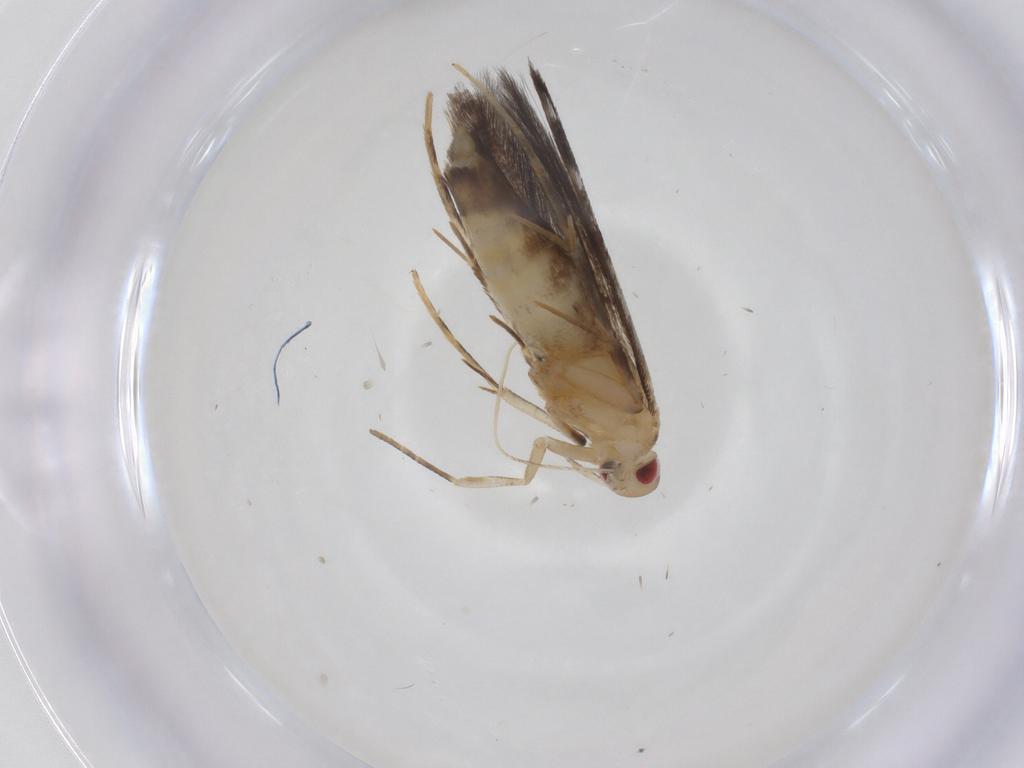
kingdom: Animalia
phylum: Arthropoda
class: Insecta
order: Lepidoptera
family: Cosmopterigidae
